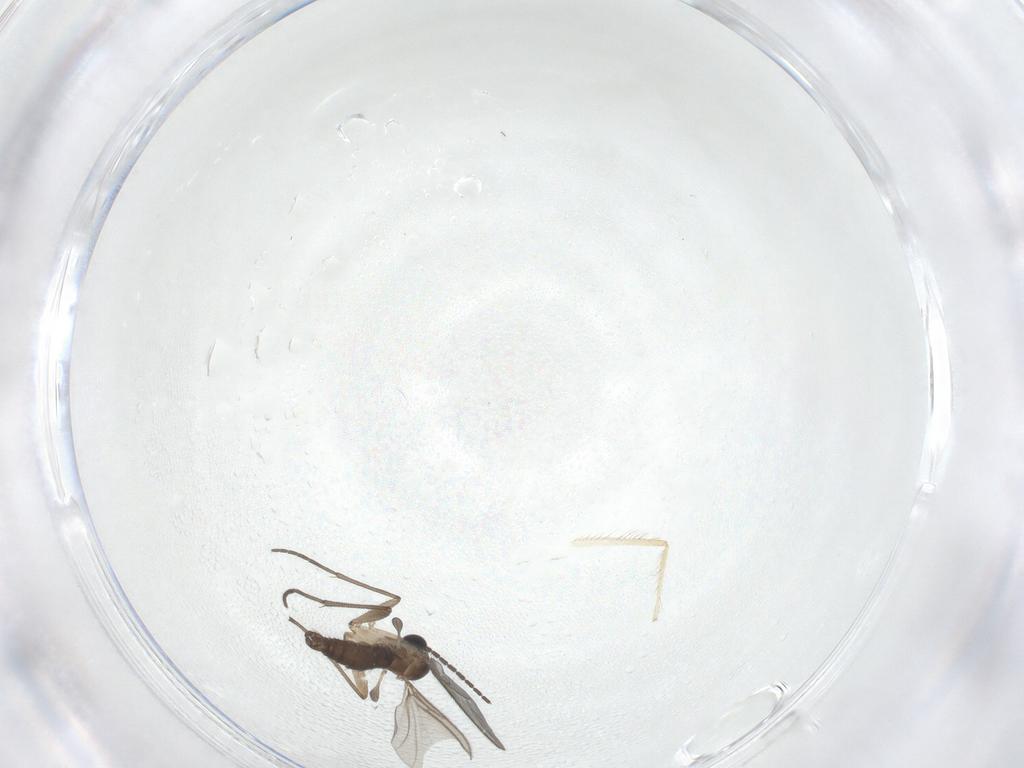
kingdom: Animalia
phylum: Arthropoda
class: Insecta
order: Diptera
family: Sciaridae
